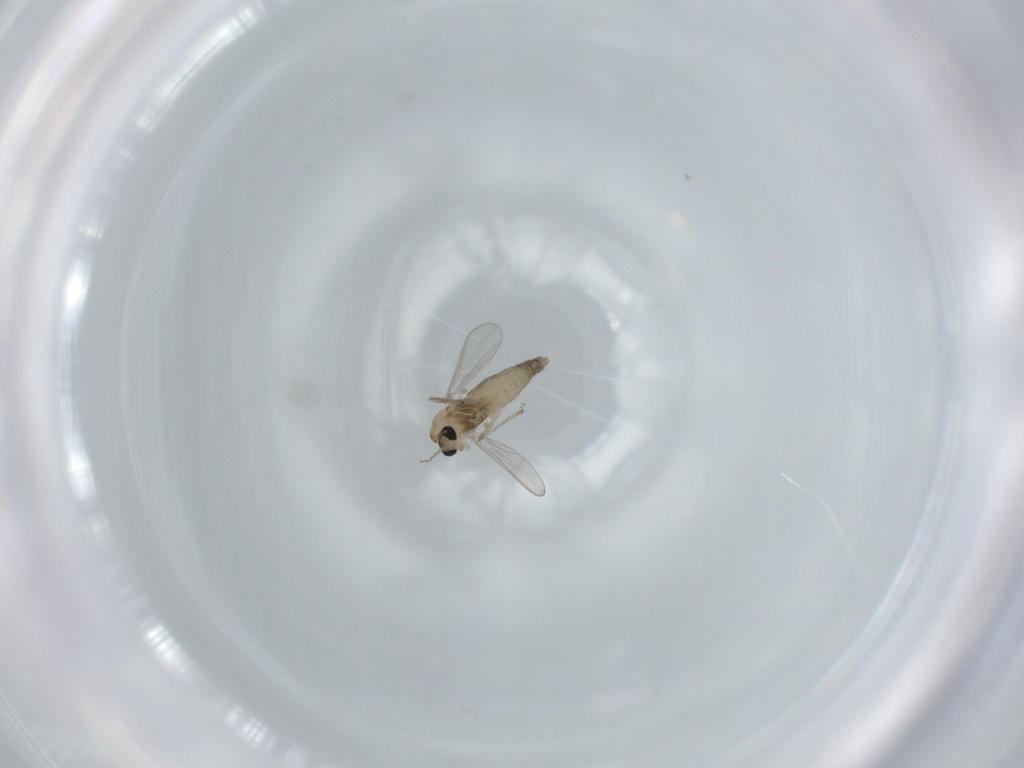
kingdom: Animalia
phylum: Arthropoda
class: Insecta
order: Diptera
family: Chironomidae
